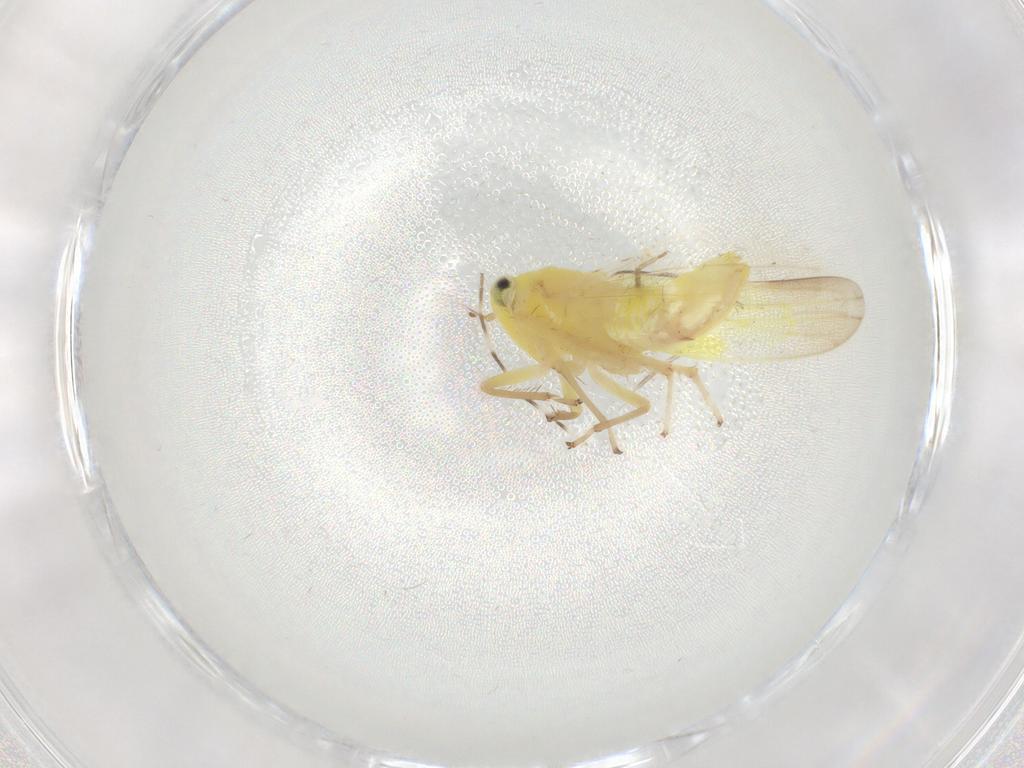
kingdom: Animalia
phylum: Arthropoda
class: Insecta
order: Hemiptera
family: Cicadellidae
